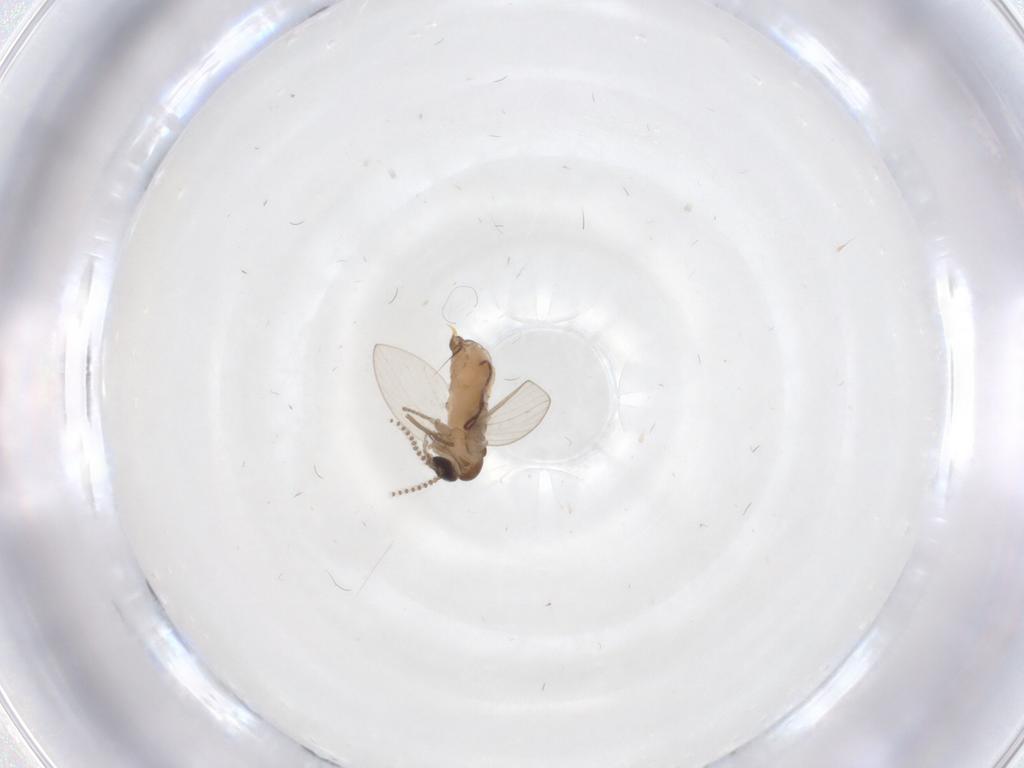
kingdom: Animalia
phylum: Arthropoda
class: Insecta
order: Diptera
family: Psychodidae
